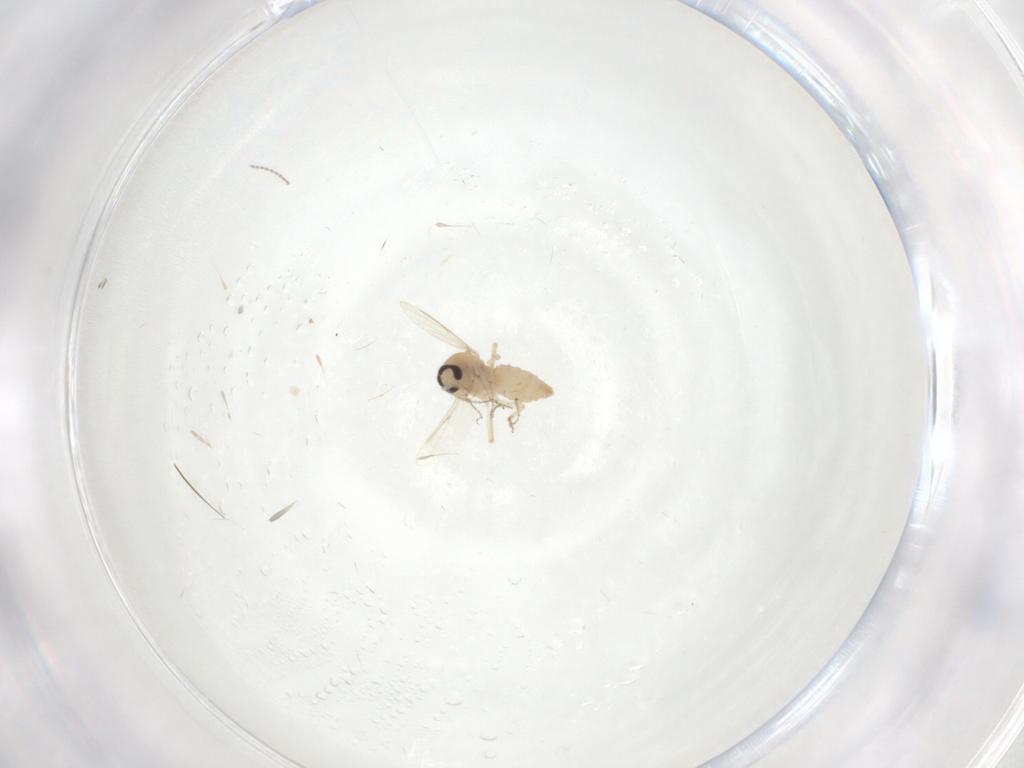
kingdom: Animalia
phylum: Arthropoda
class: Insecta
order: Diptera
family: Ceratopogonidae
